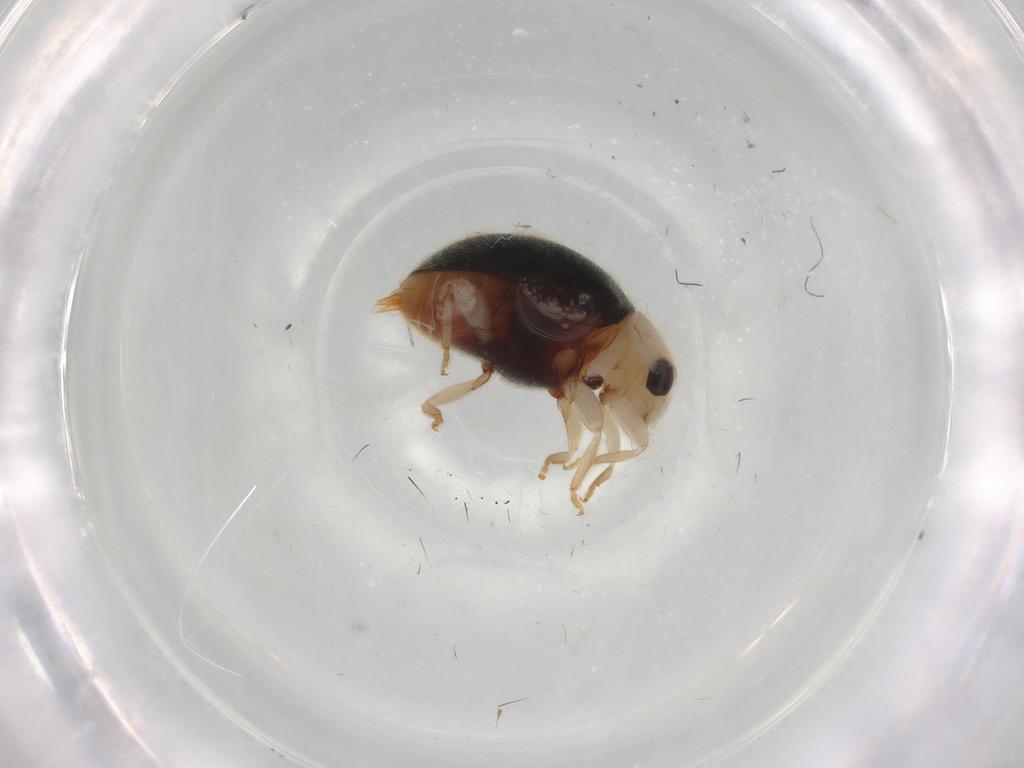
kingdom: Animalia
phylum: Arthropoda
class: Insecta
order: Coleoptera
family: Coccinellidae
